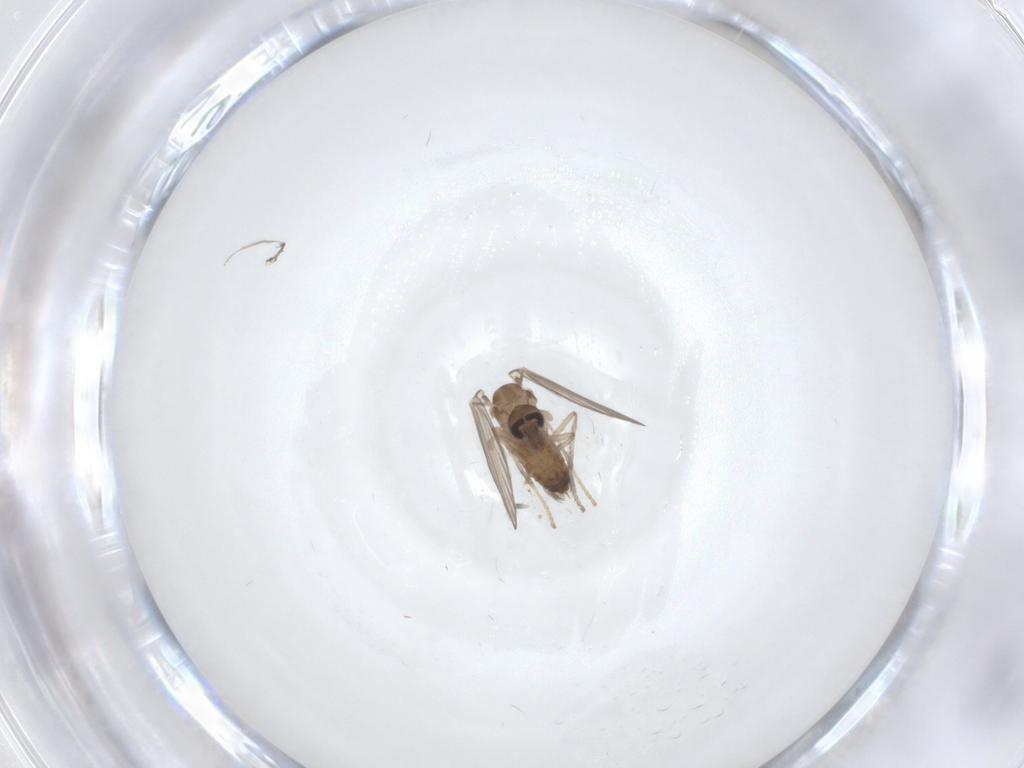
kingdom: Animalia
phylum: Arthropoda
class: Insecta
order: Diptera
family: Psychodidae
